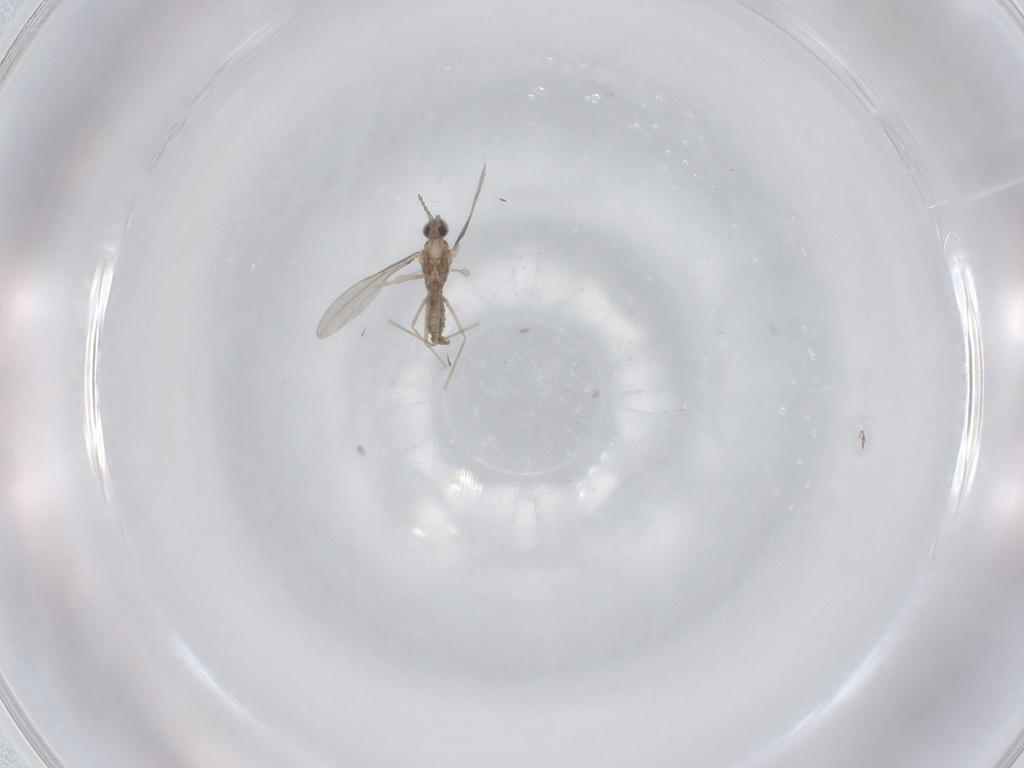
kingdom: Animalia
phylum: Arthropoda
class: Insecta
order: Diptera
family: Cecidomyiidae
